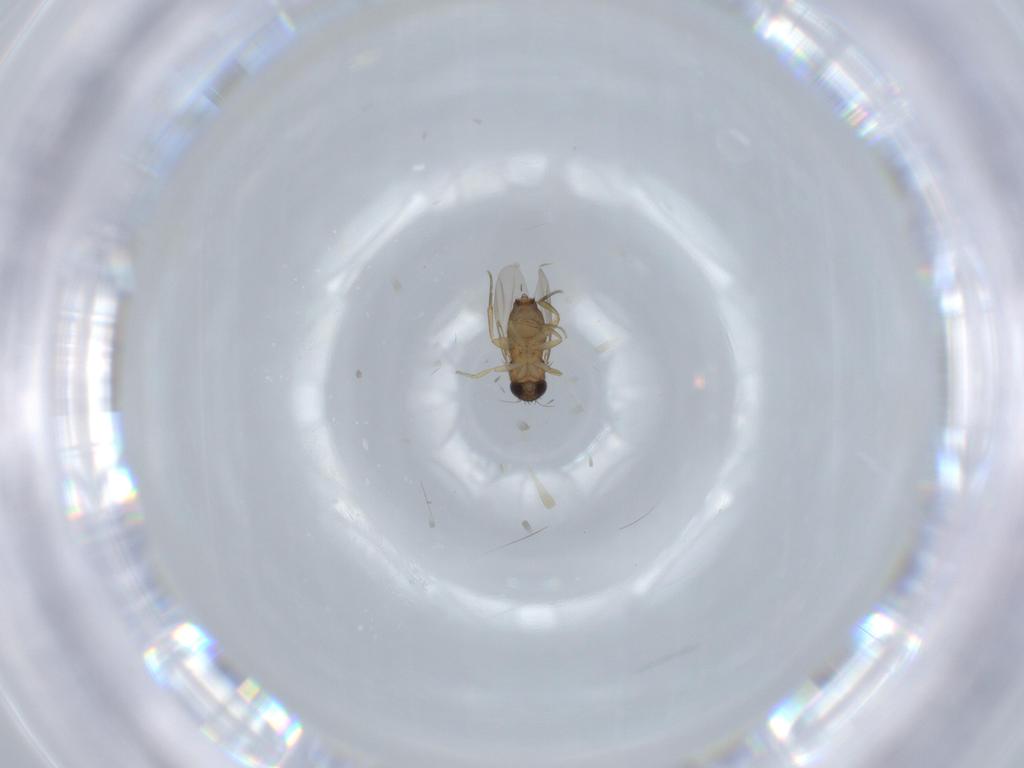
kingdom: Animalia
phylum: Arthropoda
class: Insecta
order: Diptera
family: Phoridae
